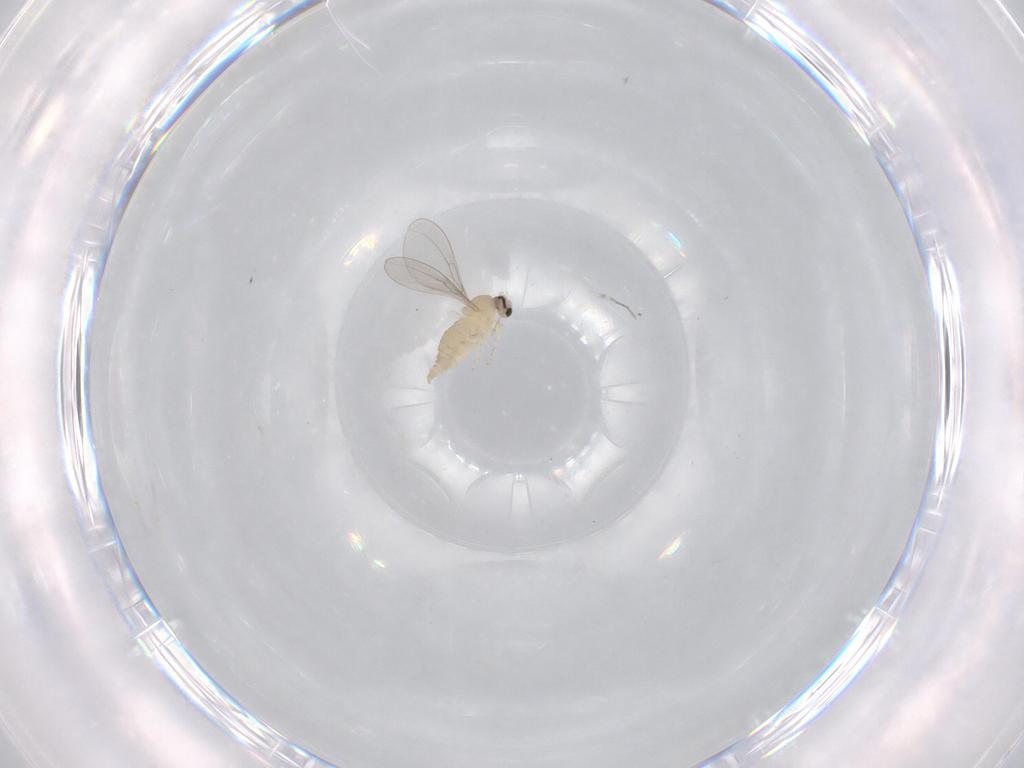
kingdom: Animalia
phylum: Arthropoda
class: Insecta
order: Diptera
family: Cecidomyiidae
